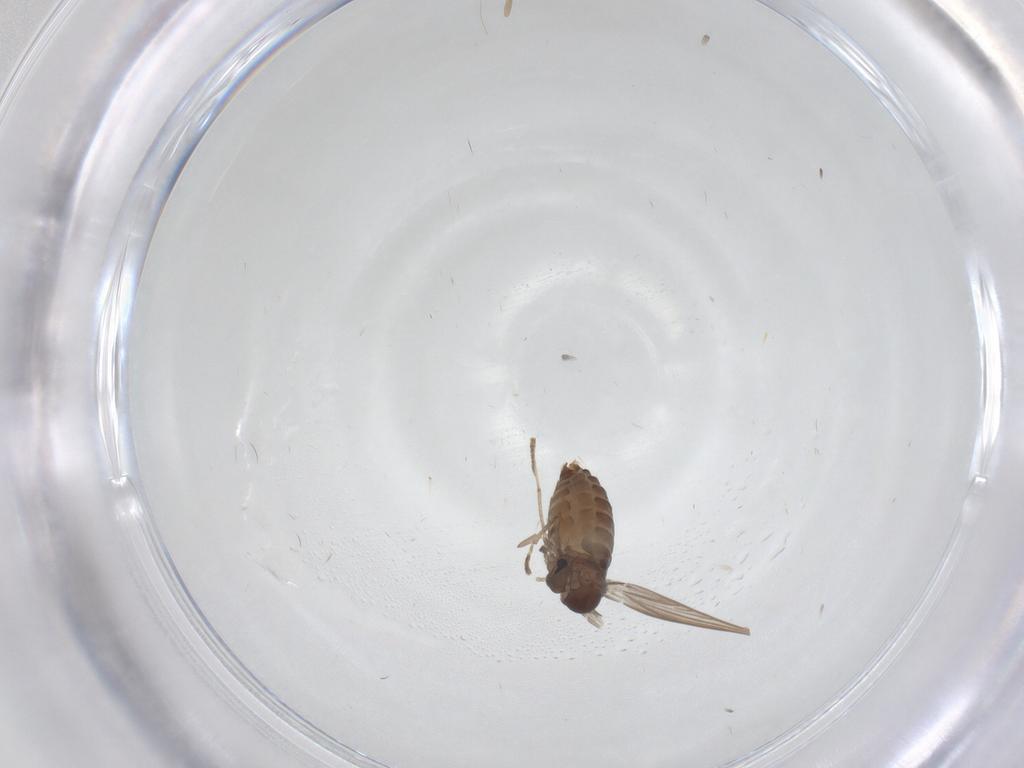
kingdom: Animalia
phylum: Arthropoda
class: Insecta
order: Diptera
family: Psychodidae
